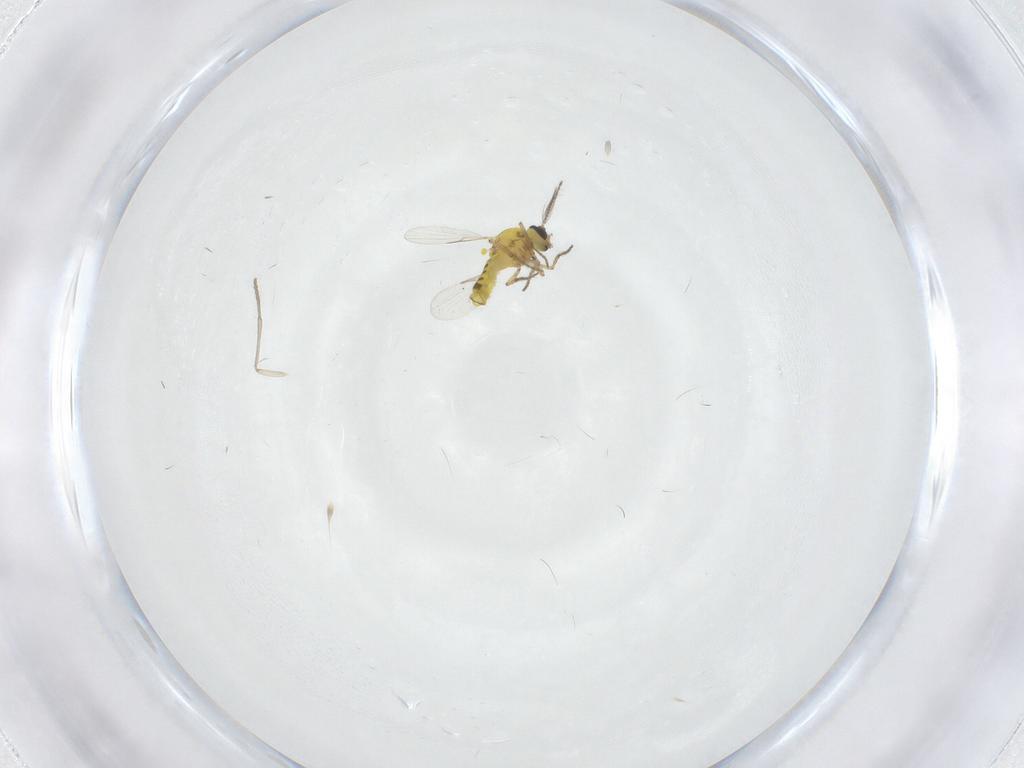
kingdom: Animalia
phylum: Arthropoda
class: Insecta
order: Diptera
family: Ceratopogonidae
